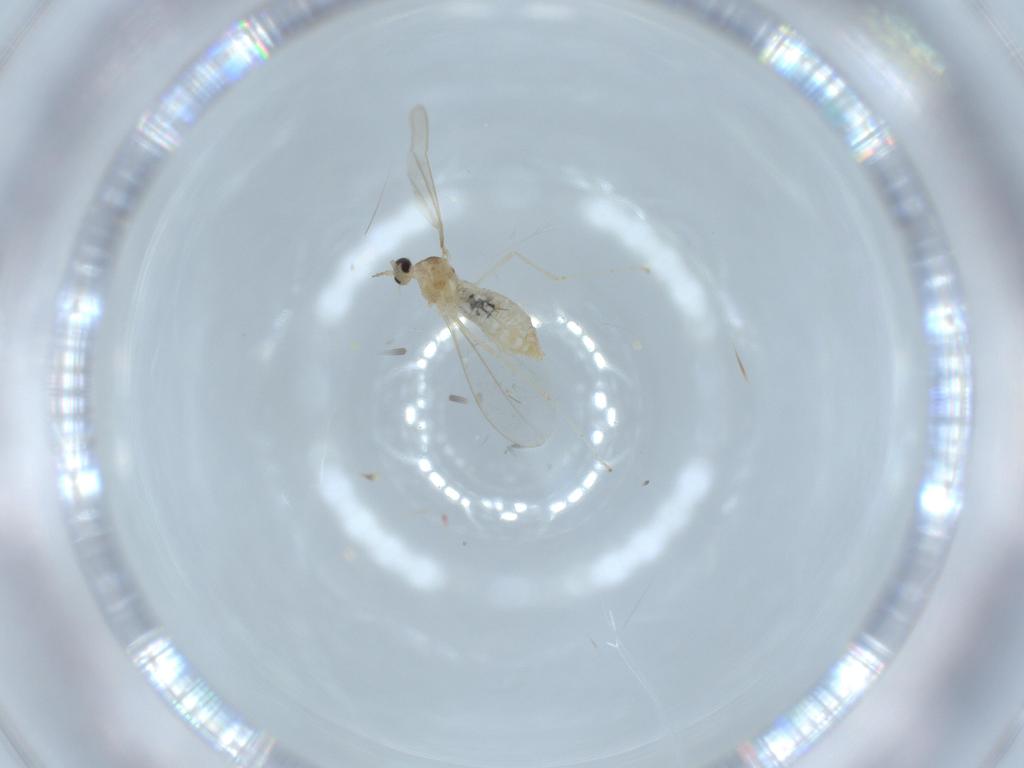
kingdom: Animalia
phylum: Arthropoda
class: Insecta
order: Diptera
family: Cecidomyiidae
